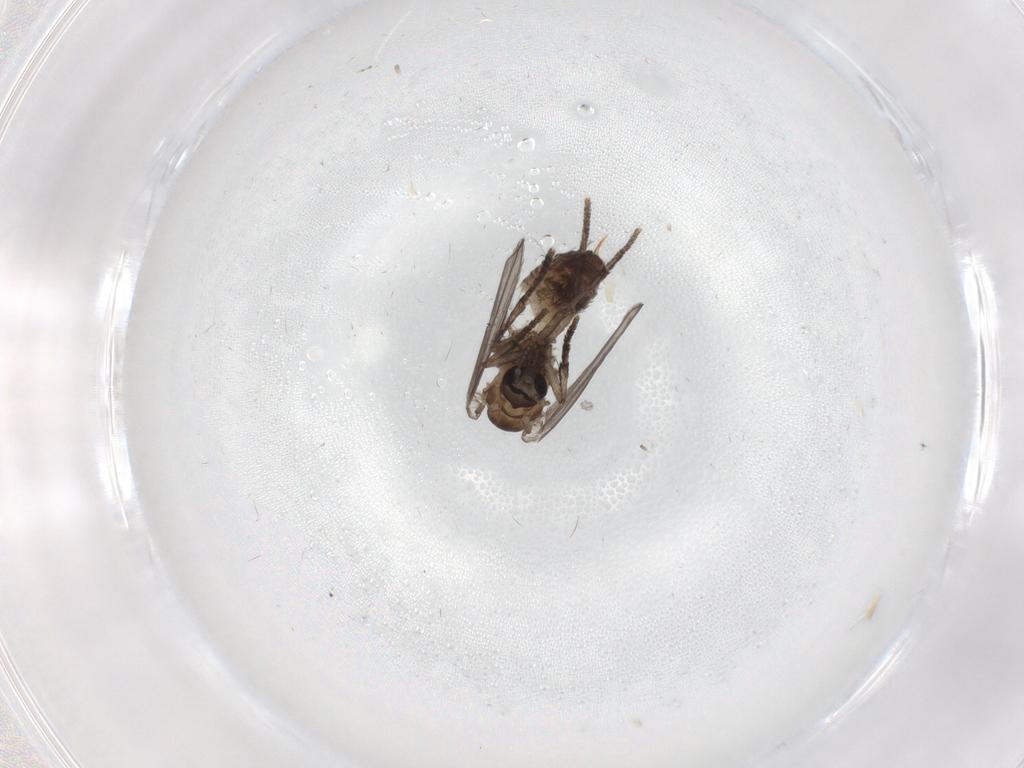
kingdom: Animalia
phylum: Arthropoda
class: Insecta
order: Diptera
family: Psychodidae
